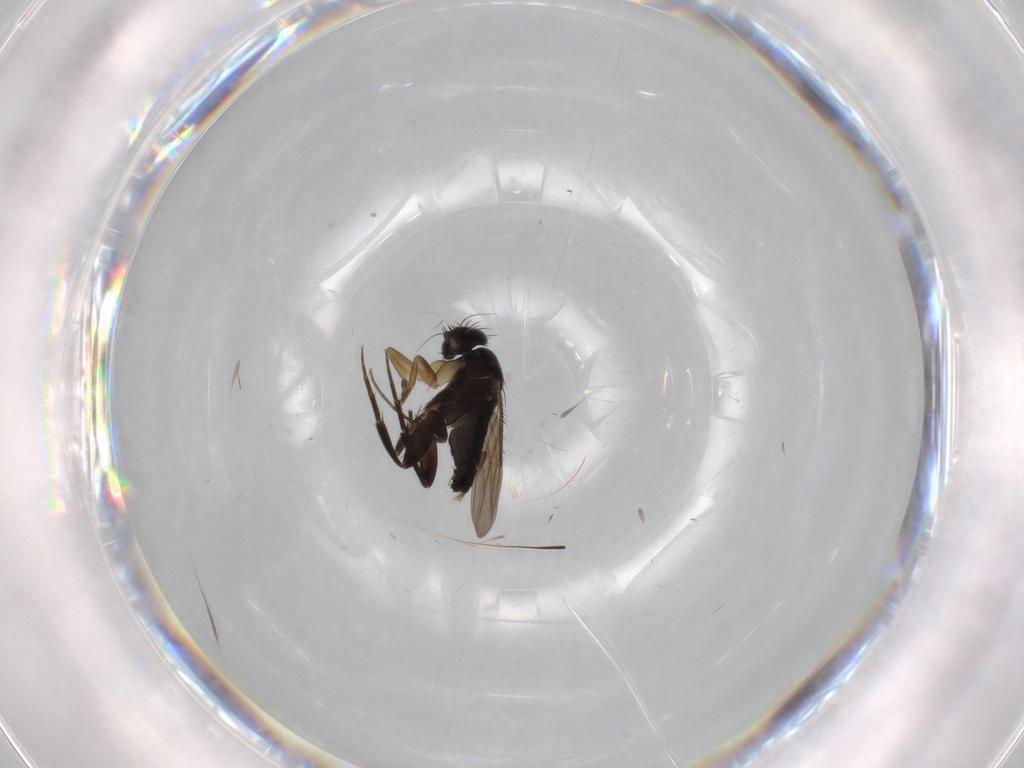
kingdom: Animalia
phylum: Arthropoda
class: Insecta
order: Diptera
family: Phoridae
